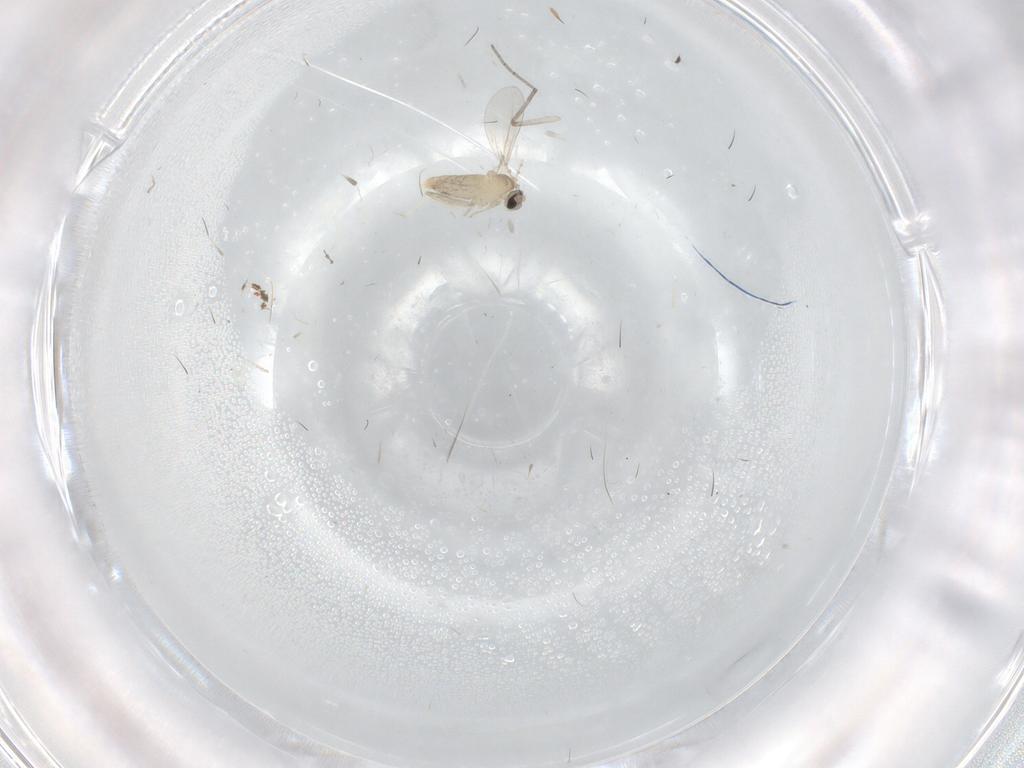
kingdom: Animalia
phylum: Arthropoda
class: Insecta
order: Diptera
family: Chironomidae
